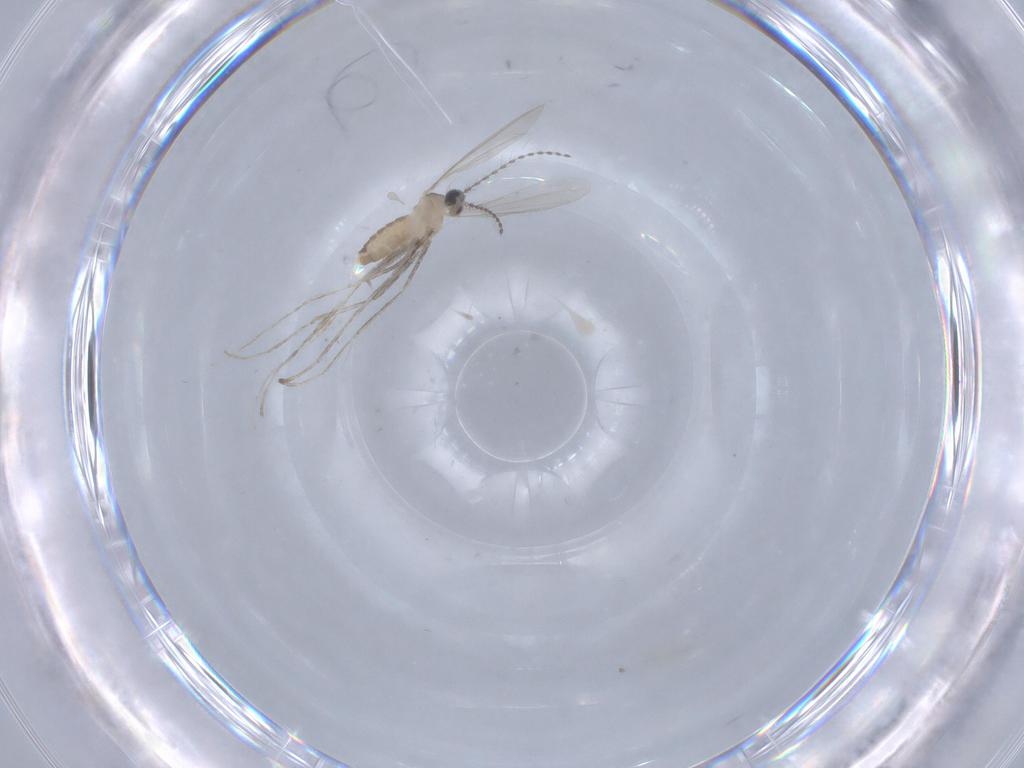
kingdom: Animalia
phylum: Arthropoda
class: Insecta
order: Diptera
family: Cecidomyiidae
